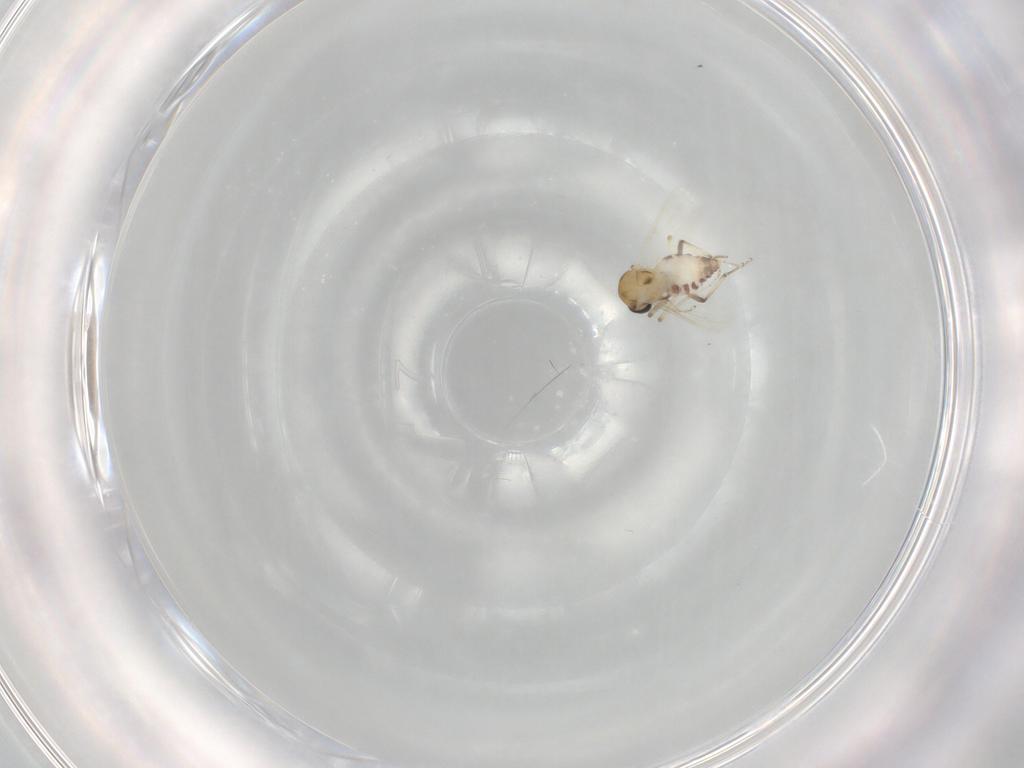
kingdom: Animalia
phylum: Arthropoda
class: Insecta
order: Diptera
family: Ceratopogonidae
